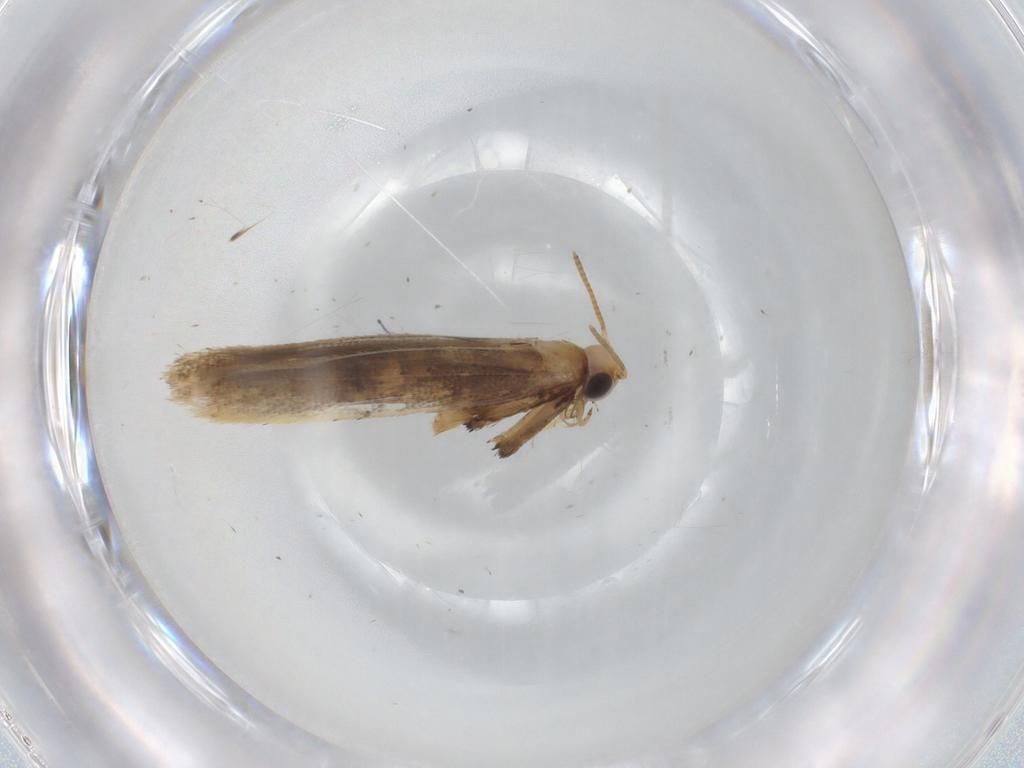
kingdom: Animalia
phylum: Arthropoda
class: Insecta
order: Lepidoptera
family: Gracillariidae
